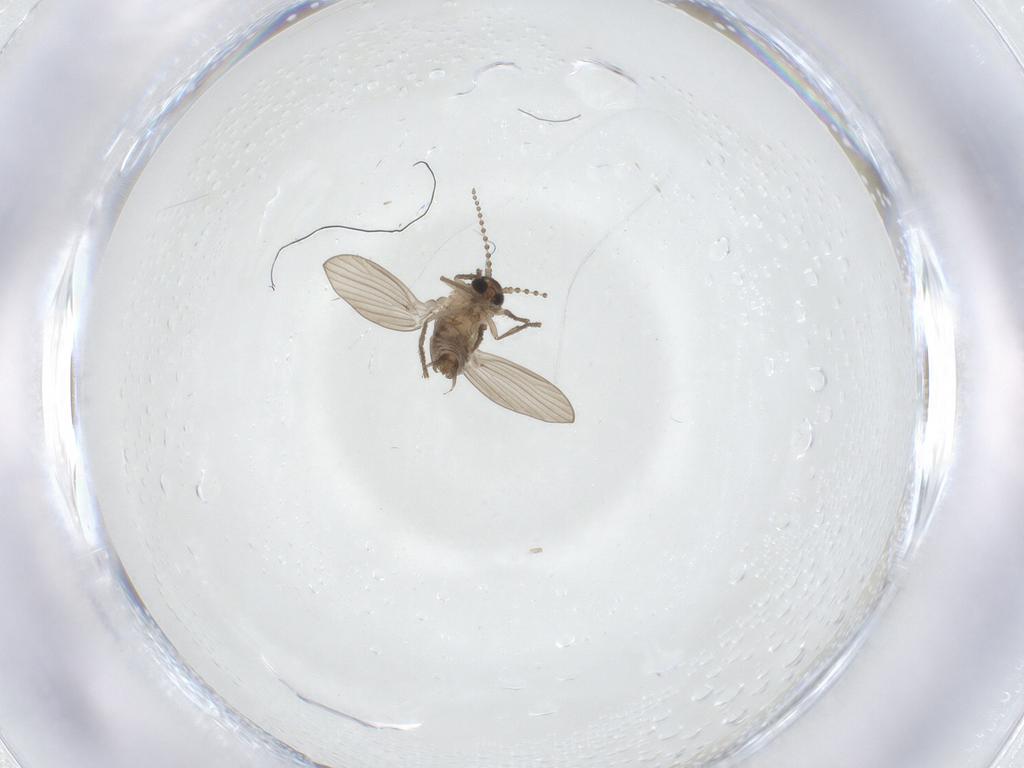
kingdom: Animalia
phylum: Arthropoda
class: Insecta
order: Diptera
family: Psychodidae
